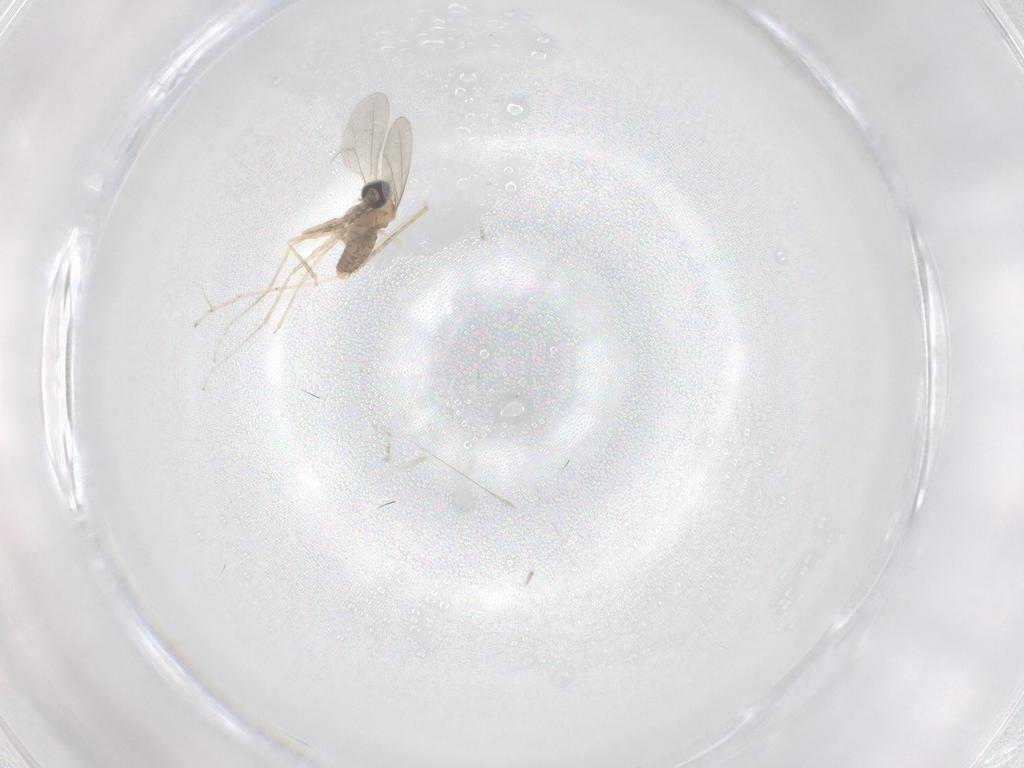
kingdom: Animalia
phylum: Arthropoda
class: Insecta
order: Diptera
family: Cecidomyiidae
